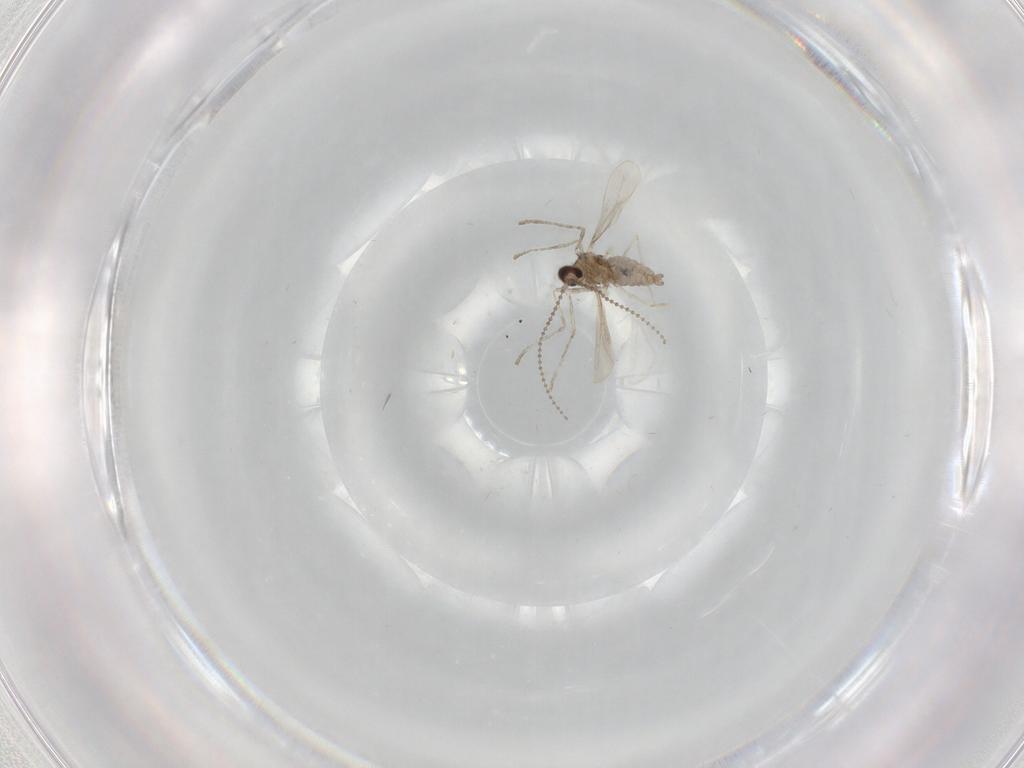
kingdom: Animalia
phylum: Arthropoda
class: Insecta
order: Diptera
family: Cecidomyiidae
